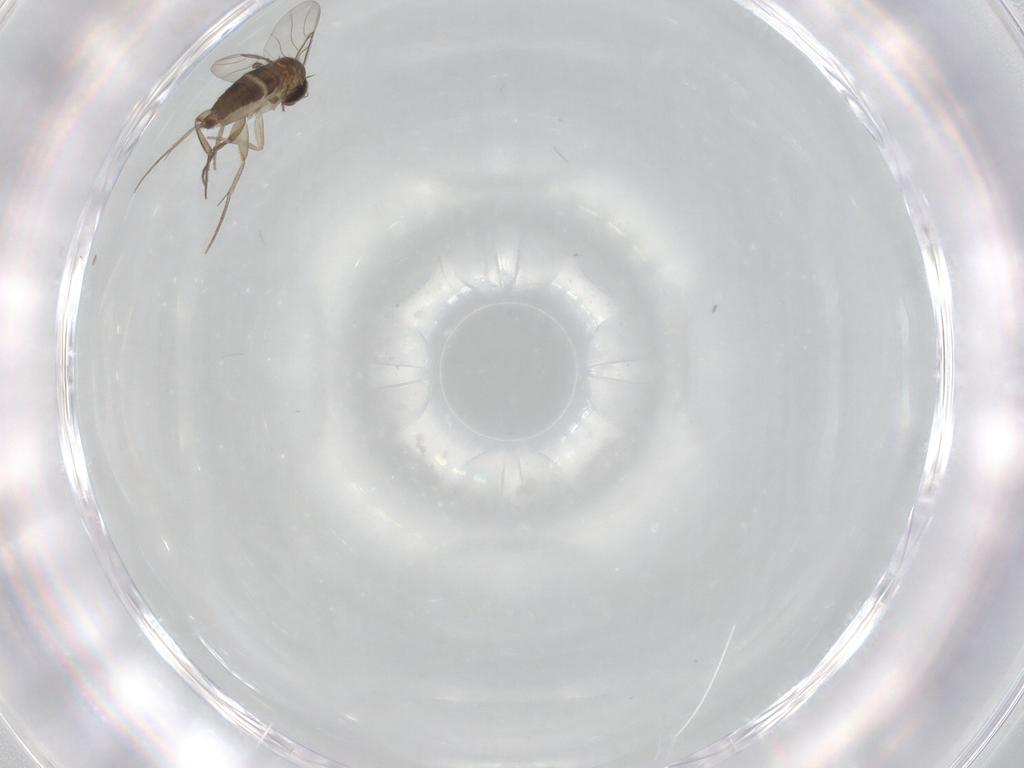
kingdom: Animalia
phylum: Arthropoda
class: Insecta
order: Diptera
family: Phoridae
